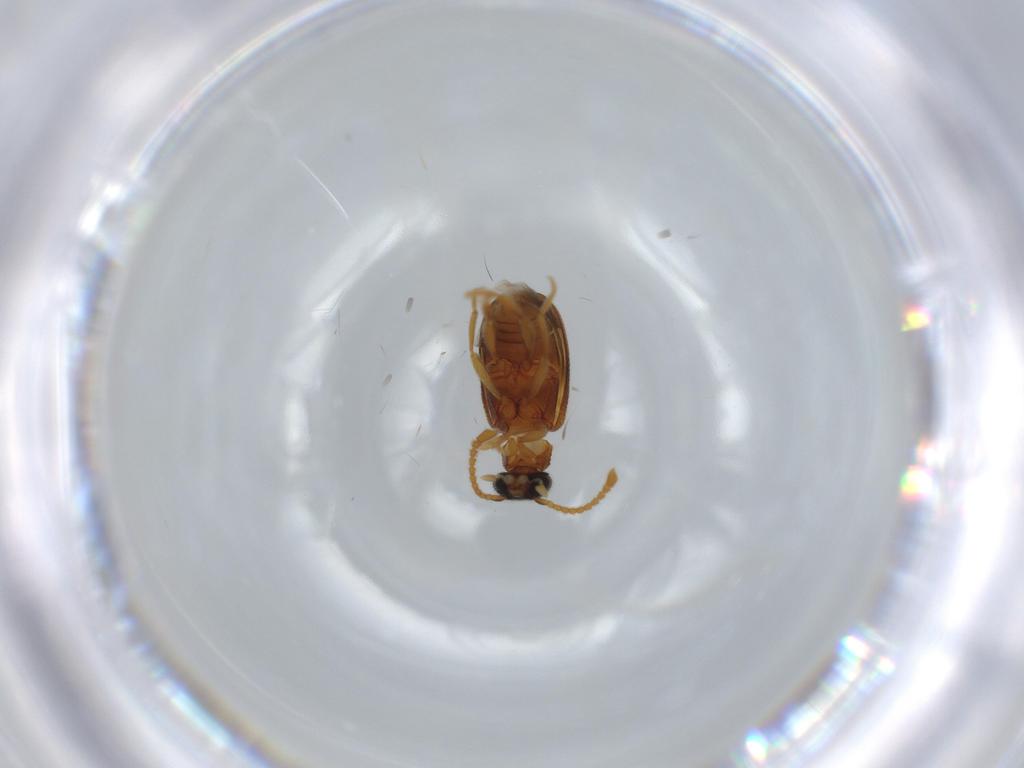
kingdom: Animalia
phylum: Arthropoda
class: Insecta
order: Coleoptera
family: Aderidae
